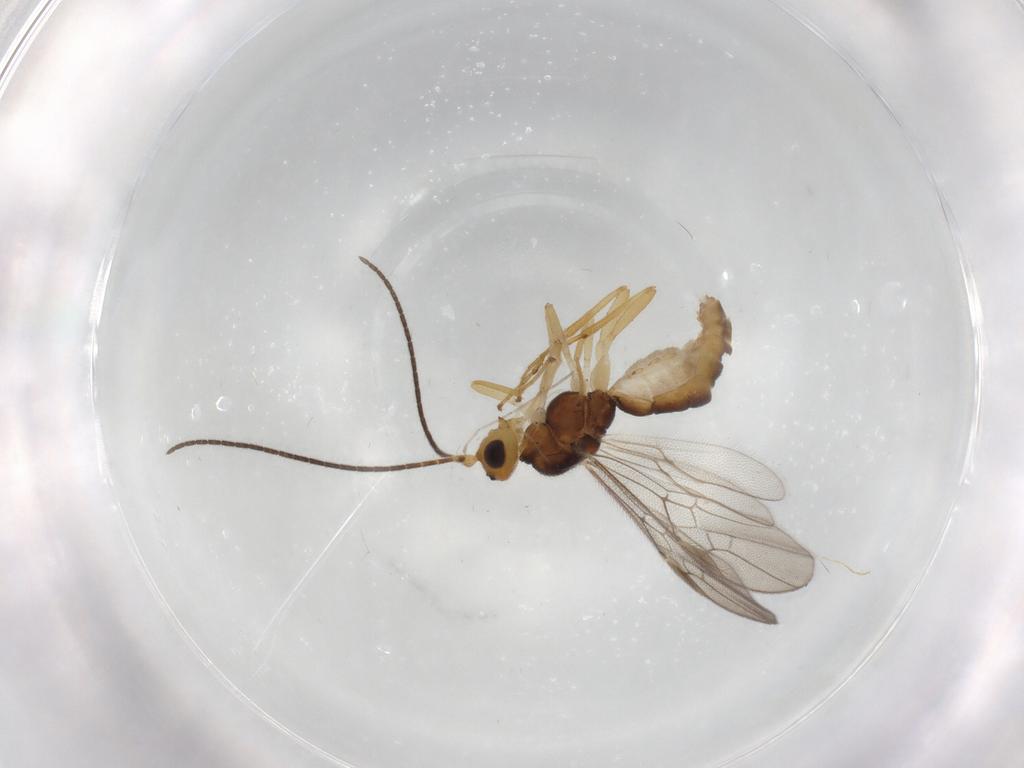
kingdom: Animalia
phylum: Arthropoda
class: Insecta
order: Hymenoptera
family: Braconidae
